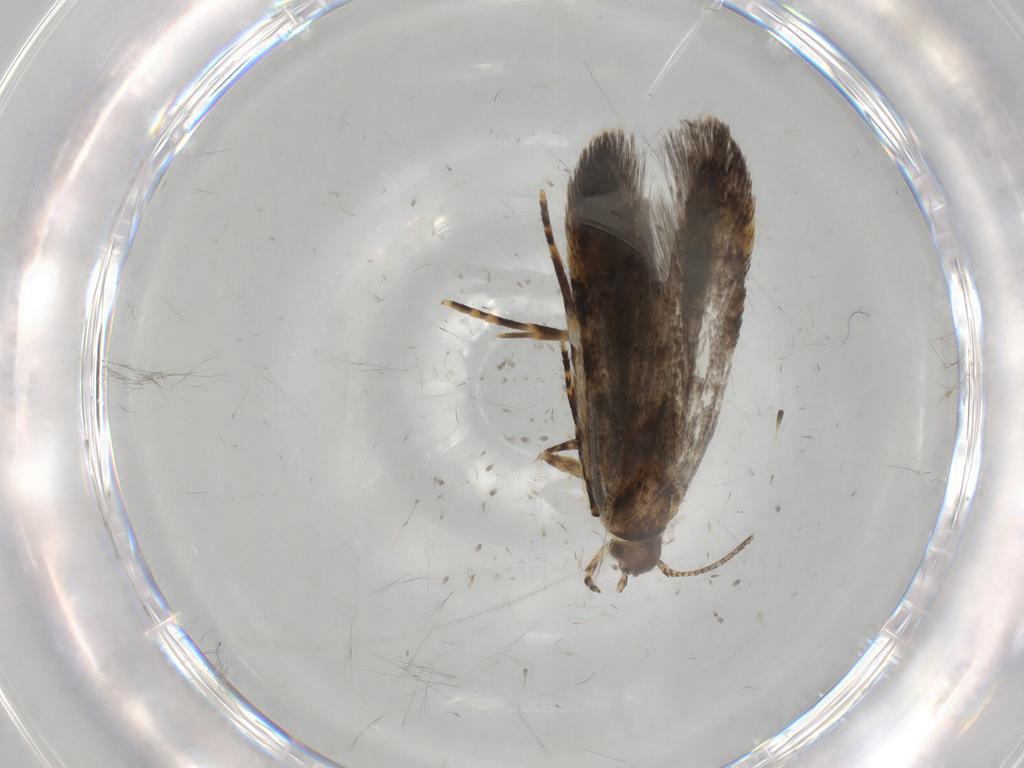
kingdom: Animalia
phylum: Arthropoda
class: Insecta
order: Lepidoptera
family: Oecophoridae
